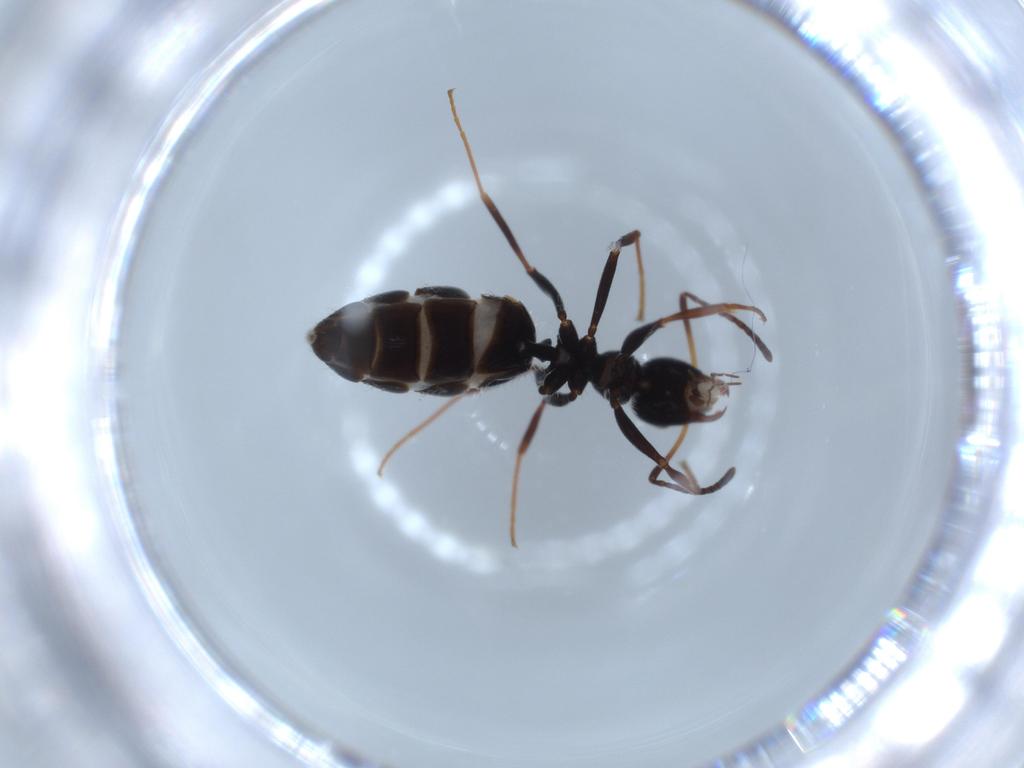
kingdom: Animalia
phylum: Arthropoda
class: Insecta
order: Hymenoptera
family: Formicidae
